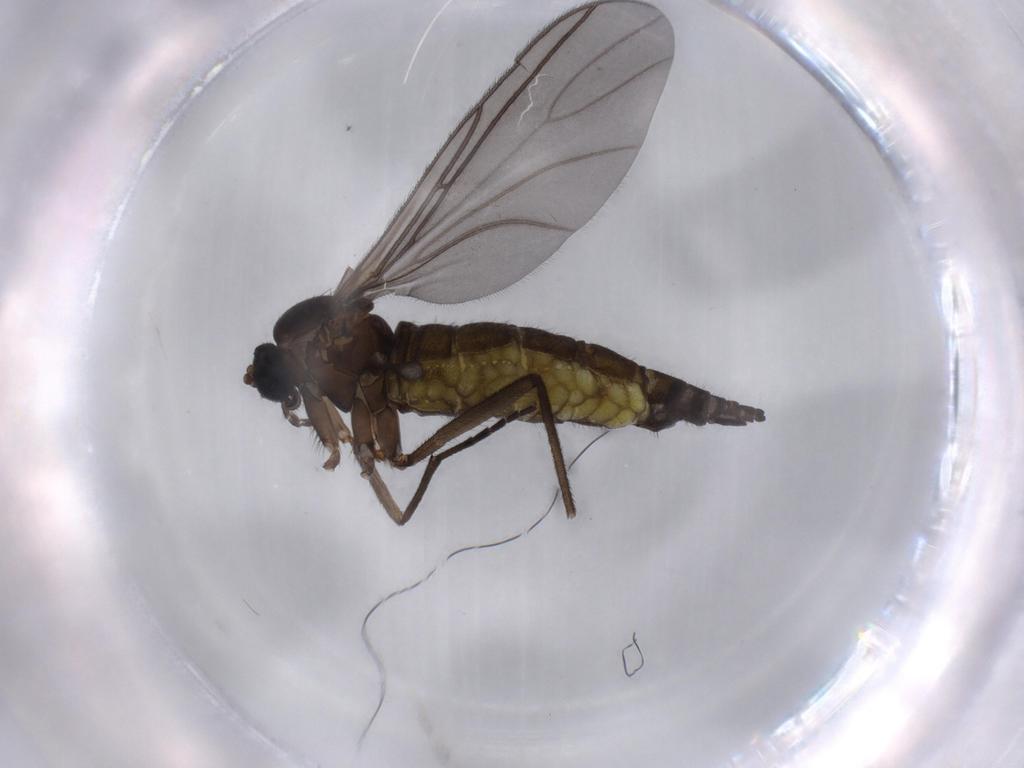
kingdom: Animalia
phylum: Arthropoda
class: Insecta
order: Diptera
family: Sciaridae
